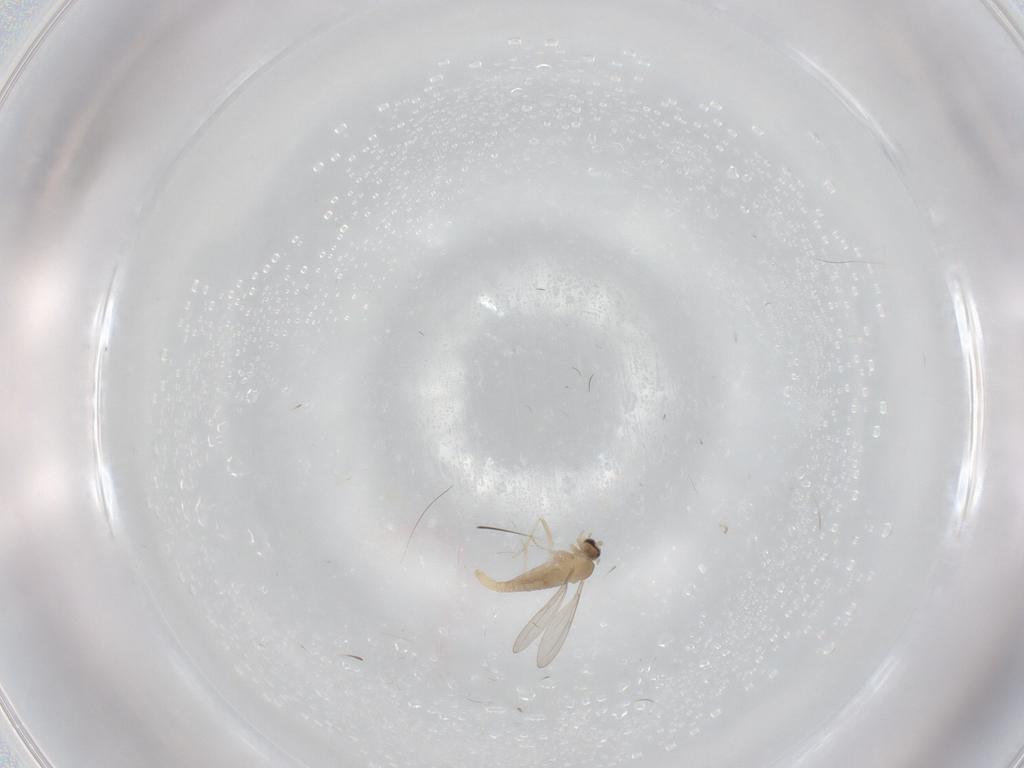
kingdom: Animalia
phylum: Arthropoda
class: Insecta
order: Diptera
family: Cecidomyiidae
